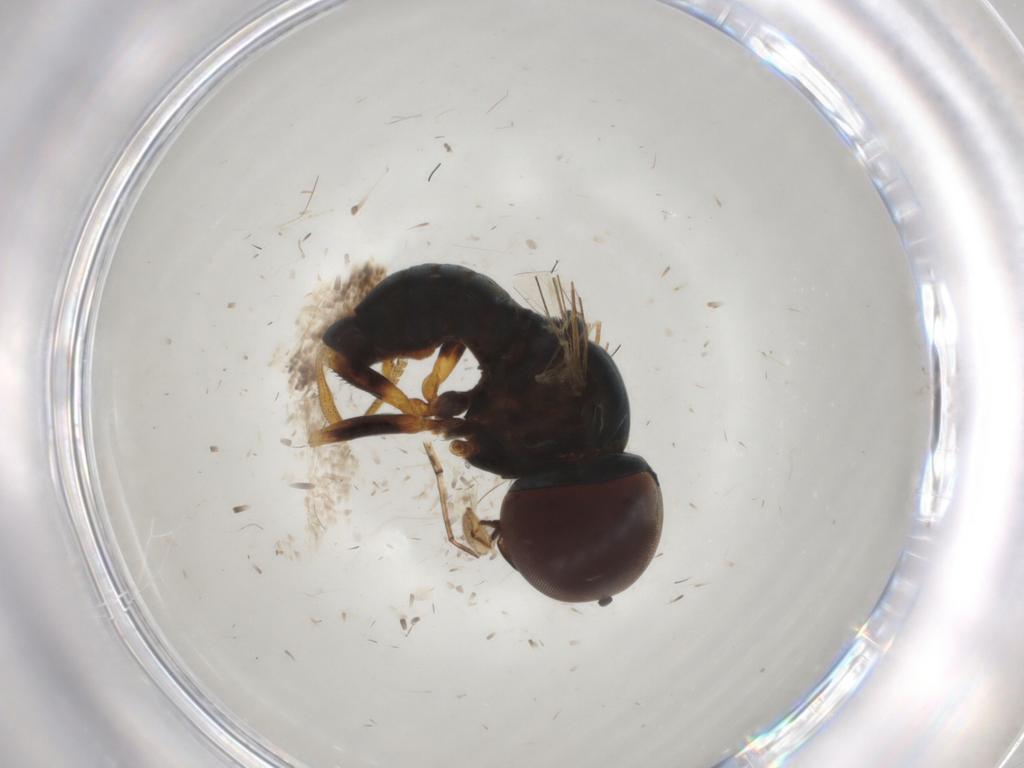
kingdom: Animalia
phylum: Arthropoda
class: Insecta
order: Diptera
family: Pipunculidae
